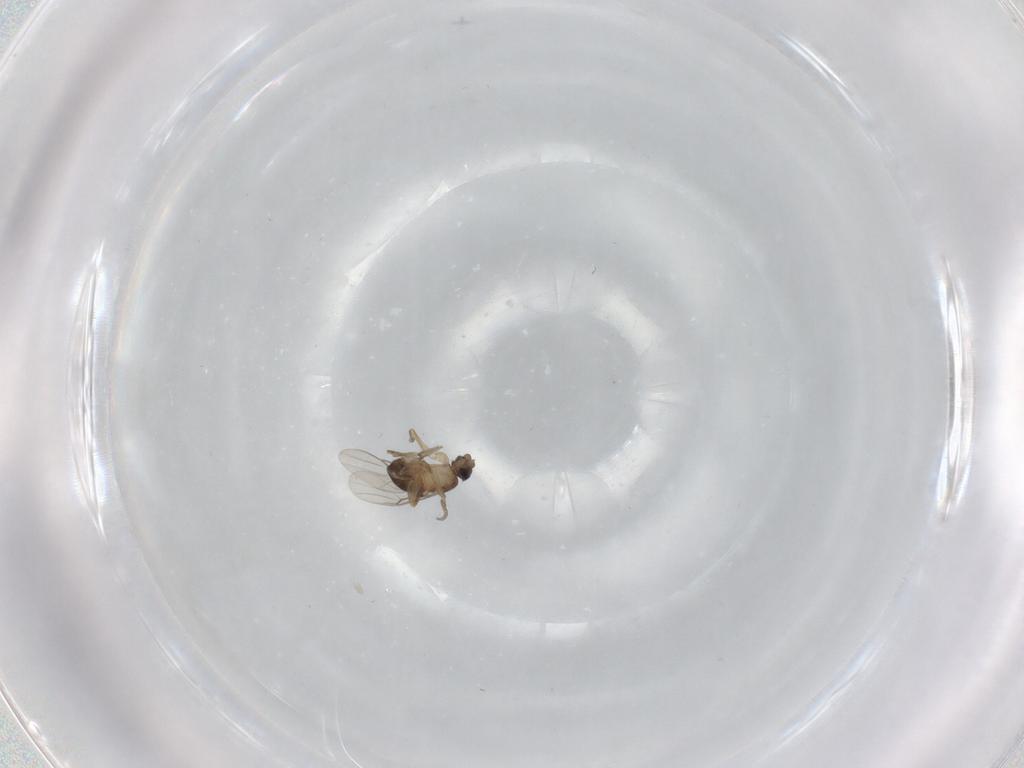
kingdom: Animalia
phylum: Arthropoda
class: Insecta
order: Diptera
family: Phoridae
